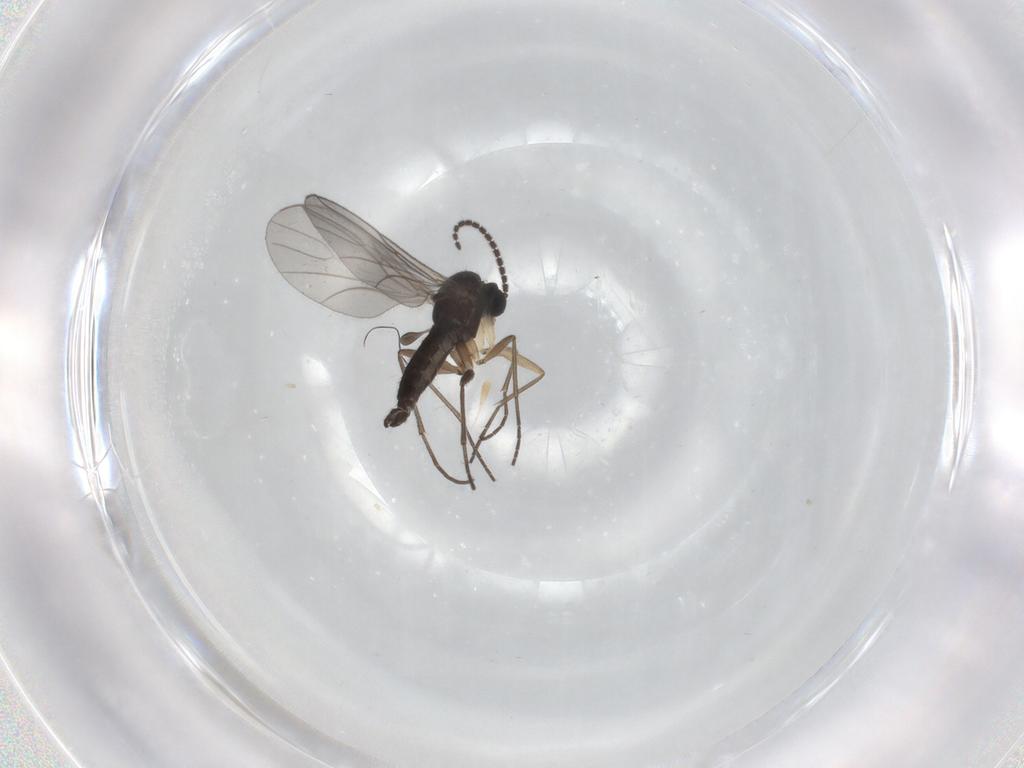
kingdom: Animalia
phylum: Arthropoda
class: Insecta
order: Diptera
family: Sciaridae
